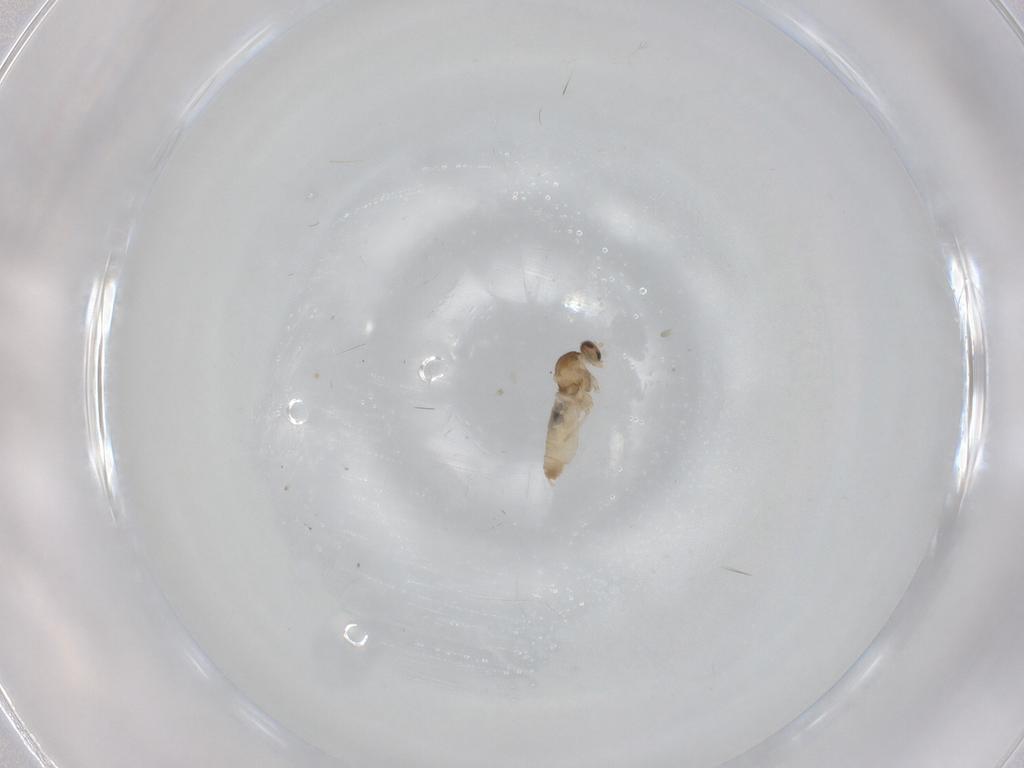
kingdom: Animalia
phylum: Arthropoda
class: Insecta
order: Diptera
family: Cecidomyiidae
